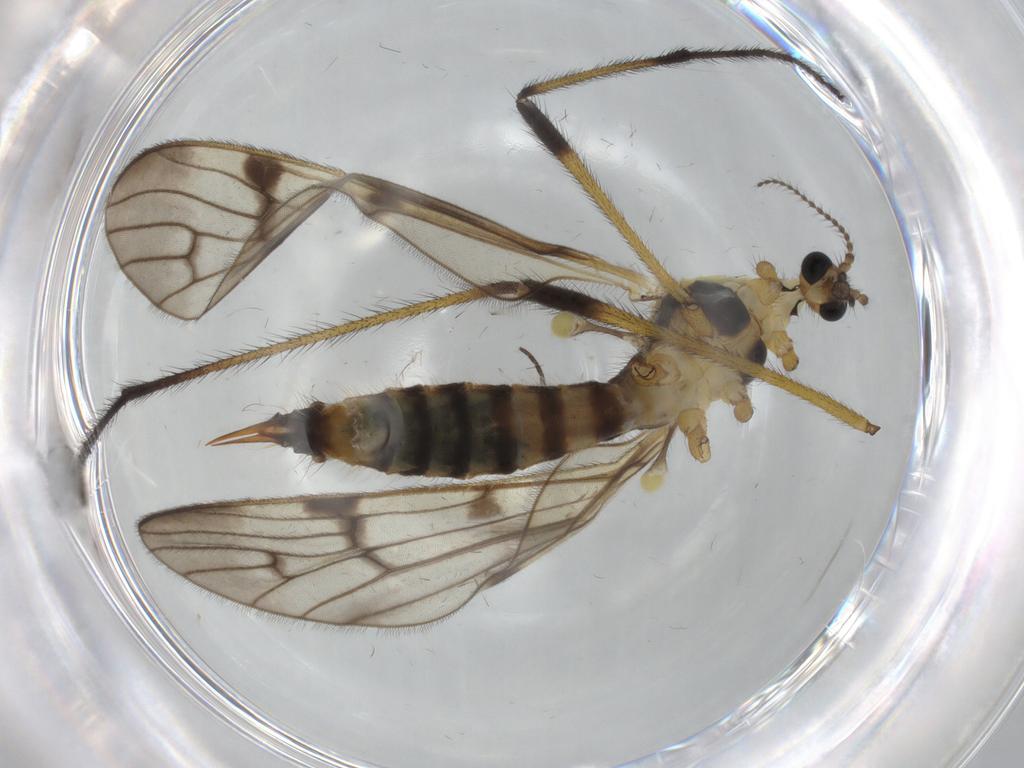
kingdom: Animalia
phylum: Arthropoda
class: Insecta
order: Diptera
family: Limoniidae
